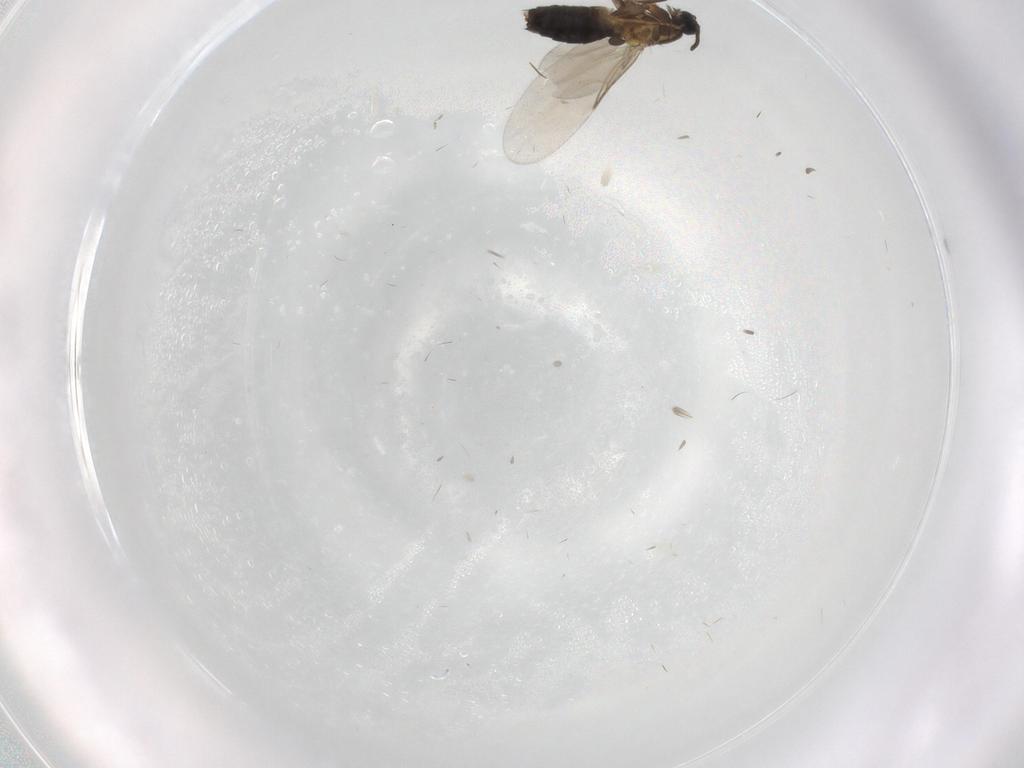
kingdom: Animalia
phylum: Arthropoda
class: Insecta
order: Diptera
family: Scatopsidae
